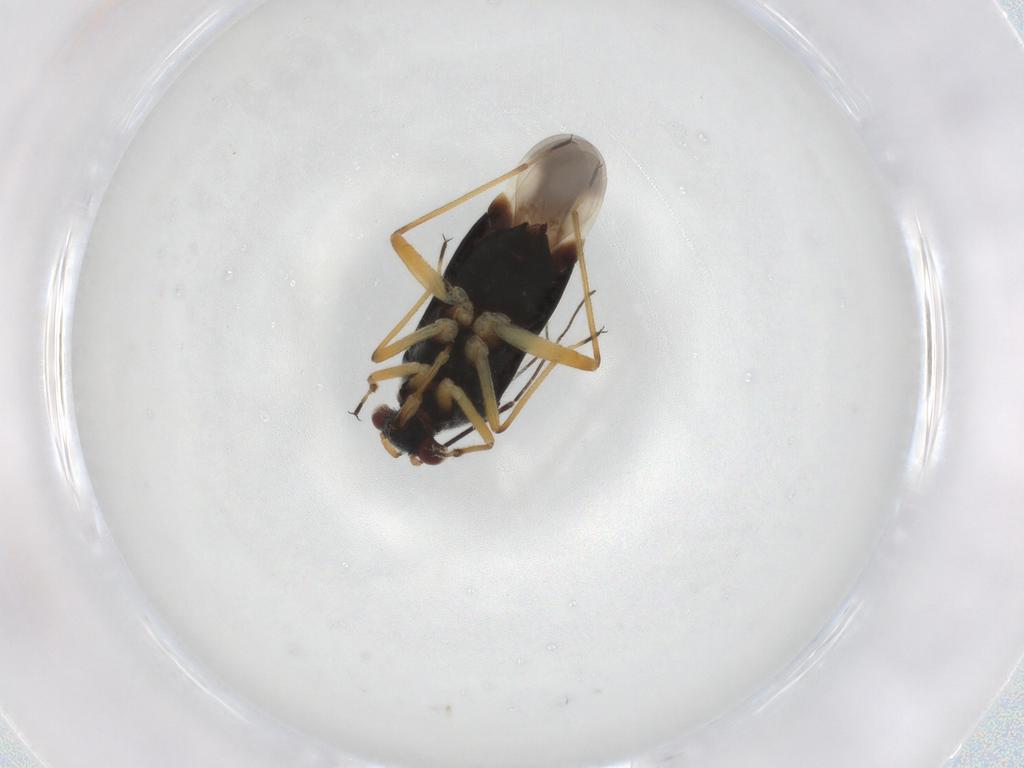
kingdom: Animalia
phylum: Arthropoda
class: Insecta
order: Hemiptera
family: Miridae
